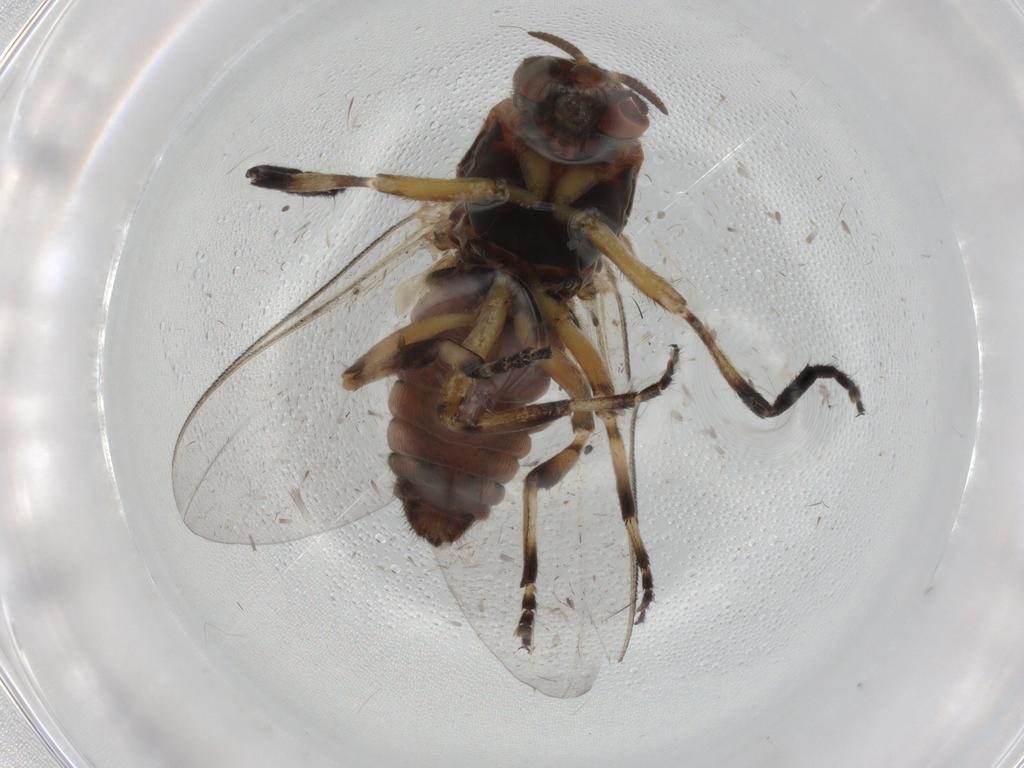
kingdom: Animalia
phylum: Arthropoda
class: Insecta
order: Diptera
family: Sciaridae
